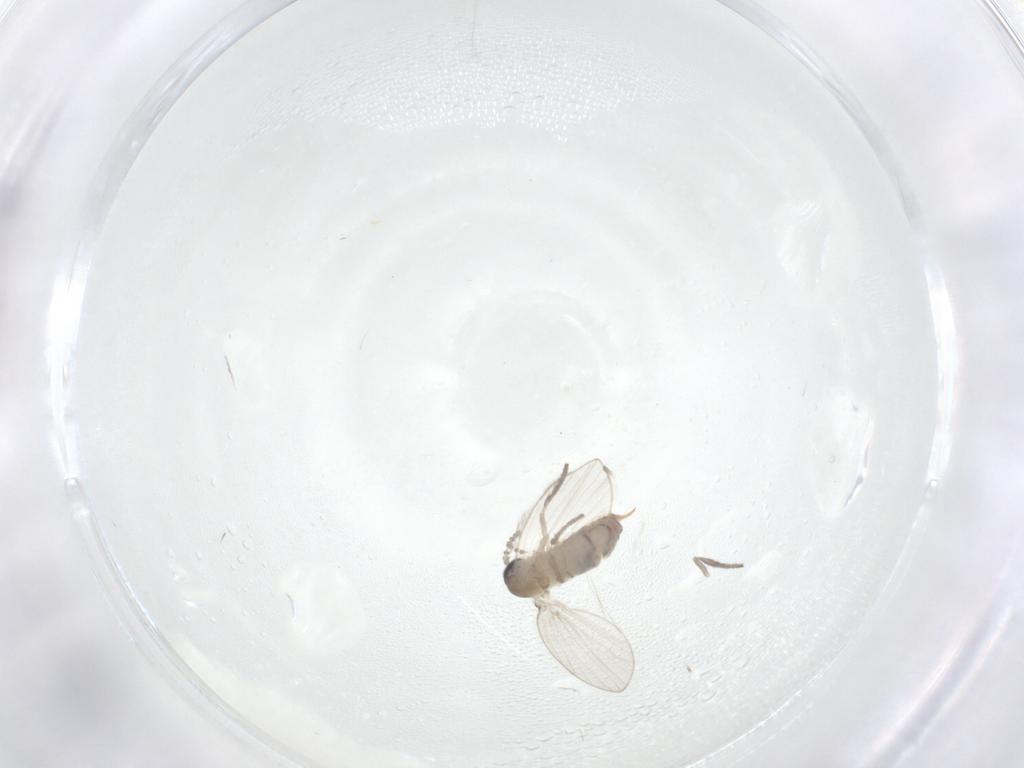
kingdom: Animalia
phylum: Arthropoda
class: Insecta
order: Diptera
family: Psychodidae
